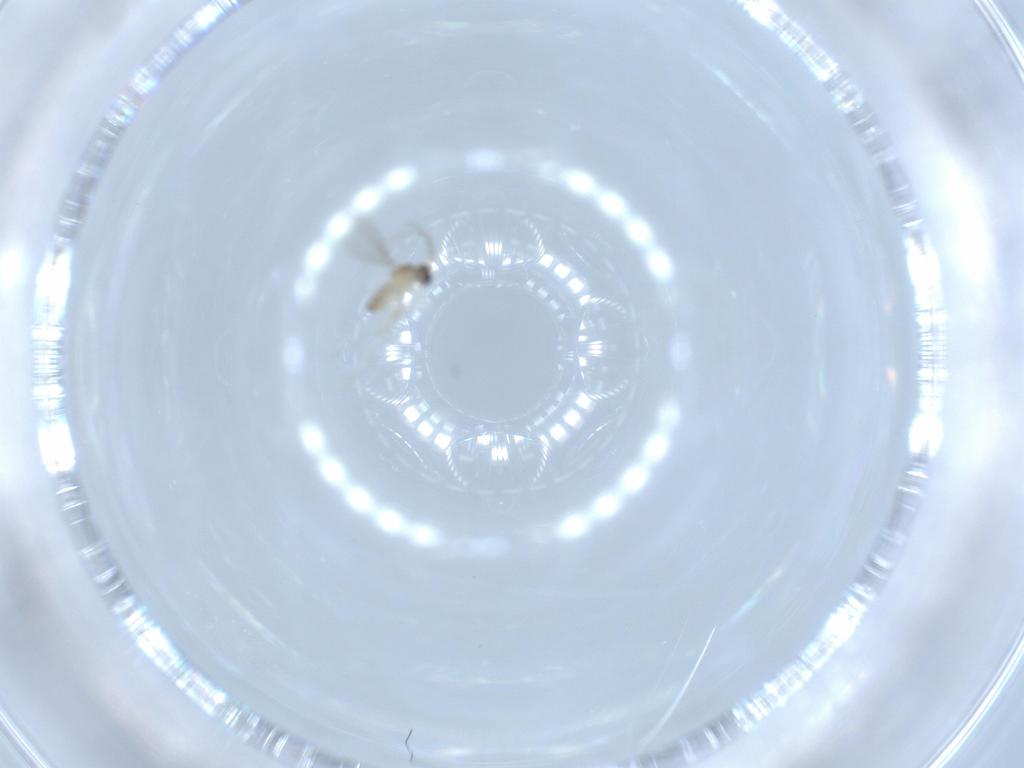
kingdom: Animalia
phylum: Arthropoda
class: Insecta
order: Diptera
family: Cecidomyiidae
